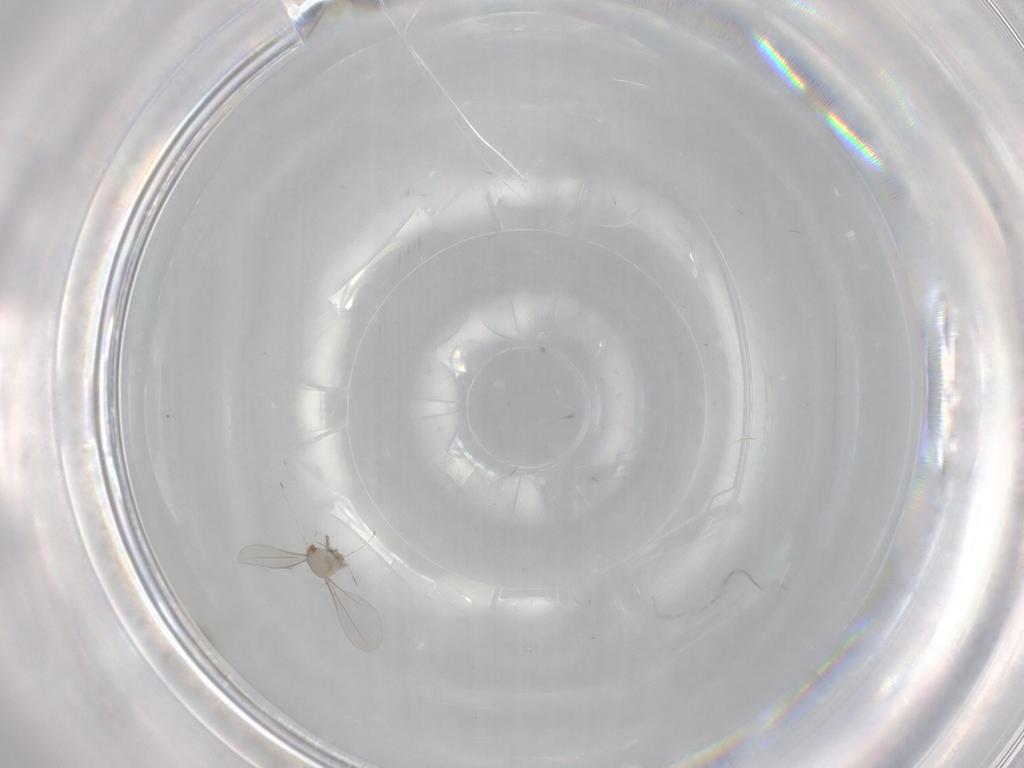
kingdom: Animalia
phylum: Arthropoda
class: Insecta
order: Diptera
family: Cecidomyiidae
